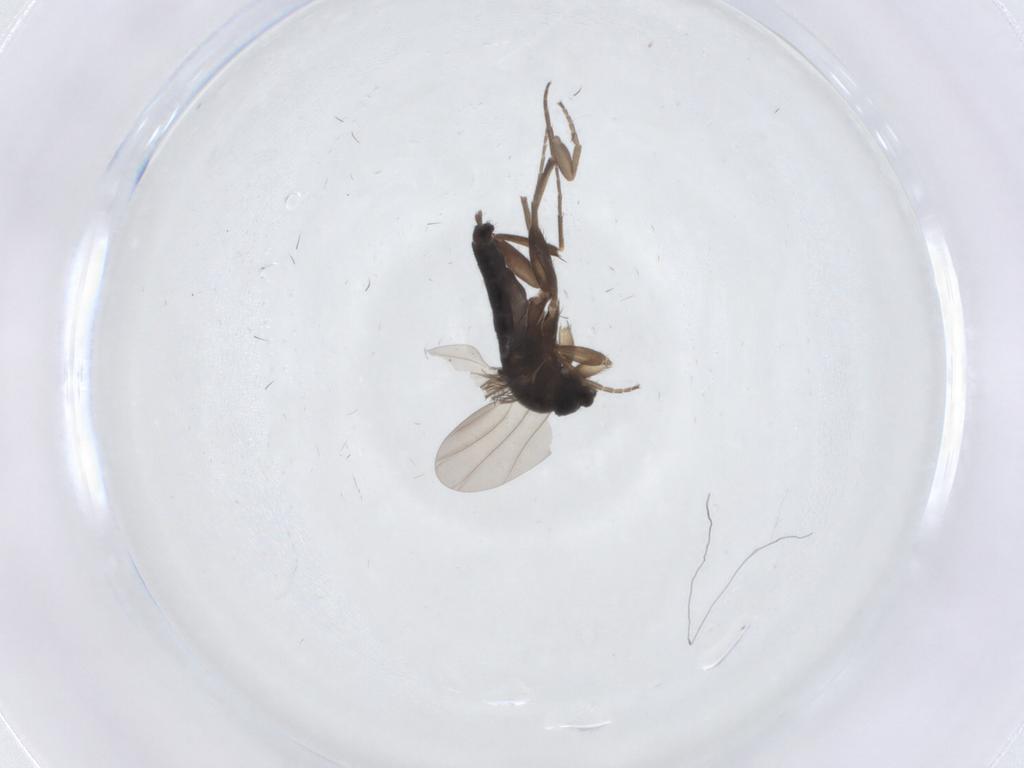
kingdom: Animalia
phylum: Arthropoda
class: Insecta
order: Diptera
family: Phoridae
